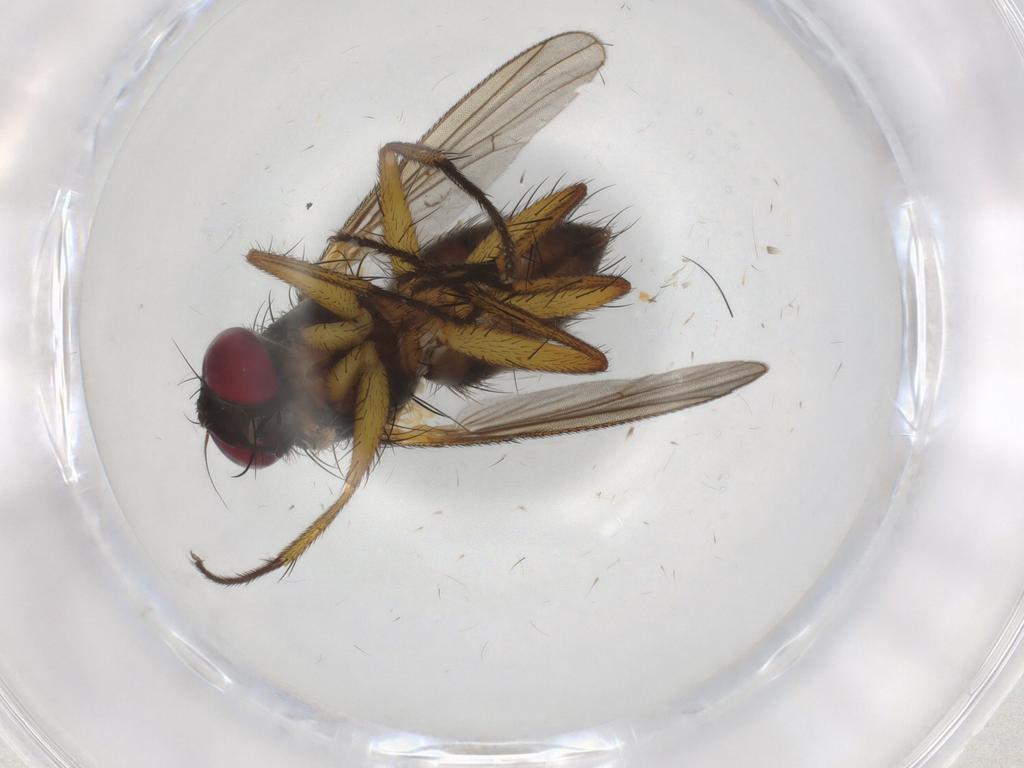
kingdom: Animalia
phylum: Arthropoda
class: Insecta
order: Diptera
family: Muscidae
